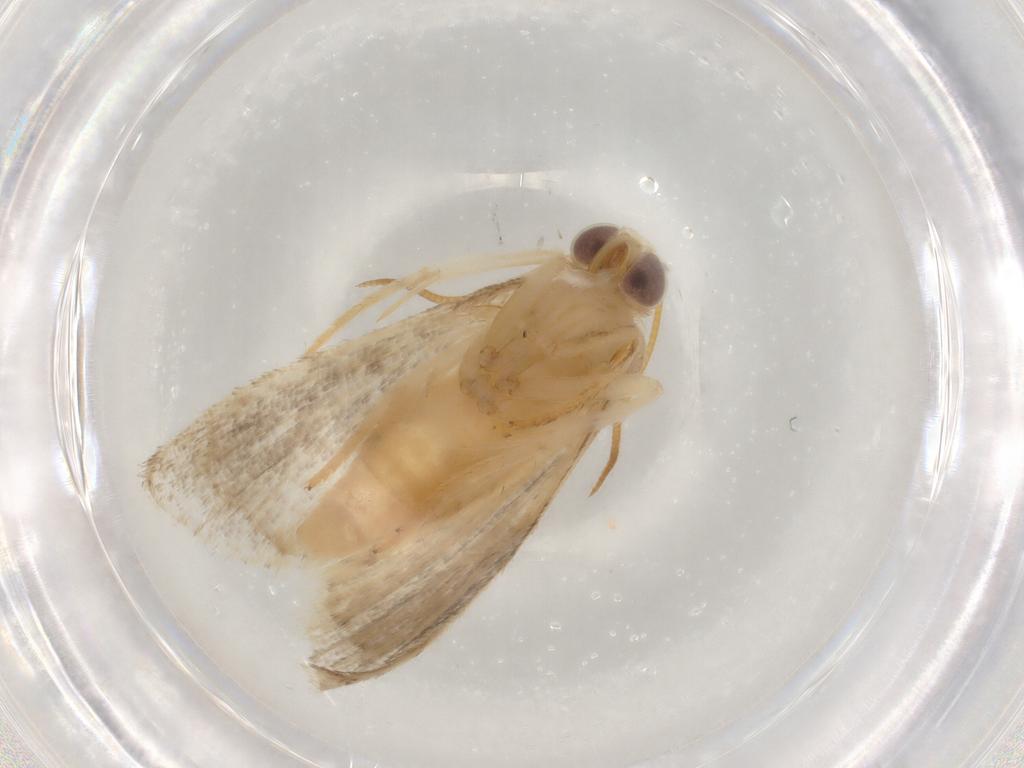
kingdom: Animalia
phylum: Arthropoda
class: Insecta
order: Lepidoptera
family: Noctuidae
